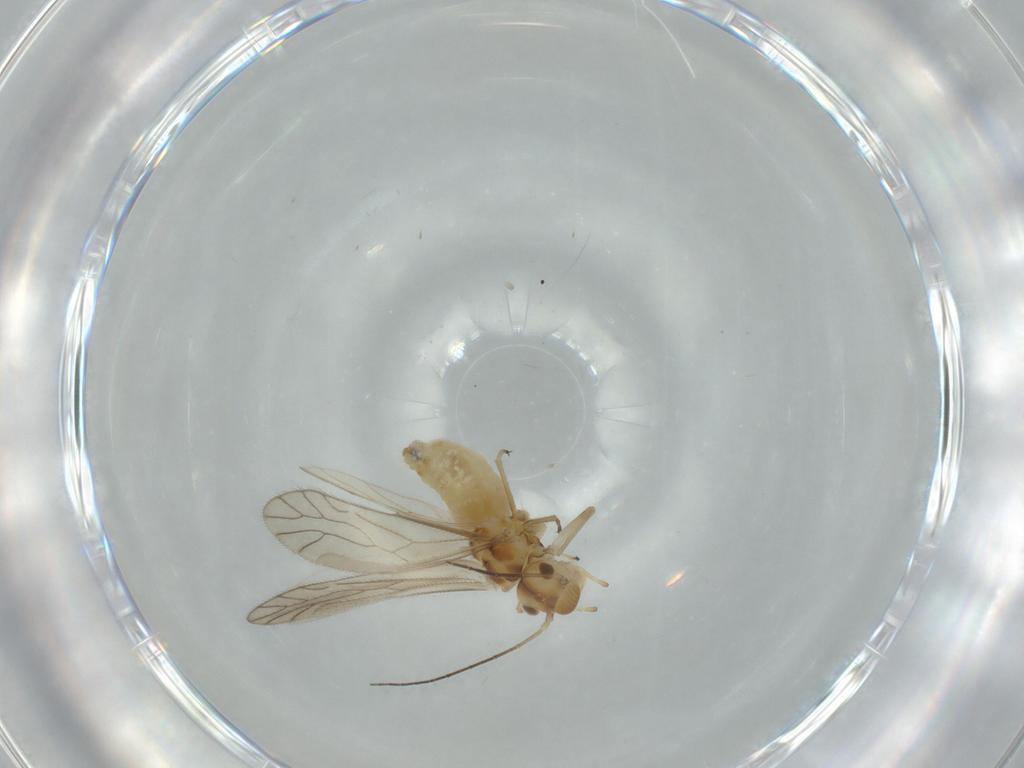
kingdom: Animalia
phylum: Arthropoda
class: Insecta
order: Psocodea
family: Caeciliusidae
